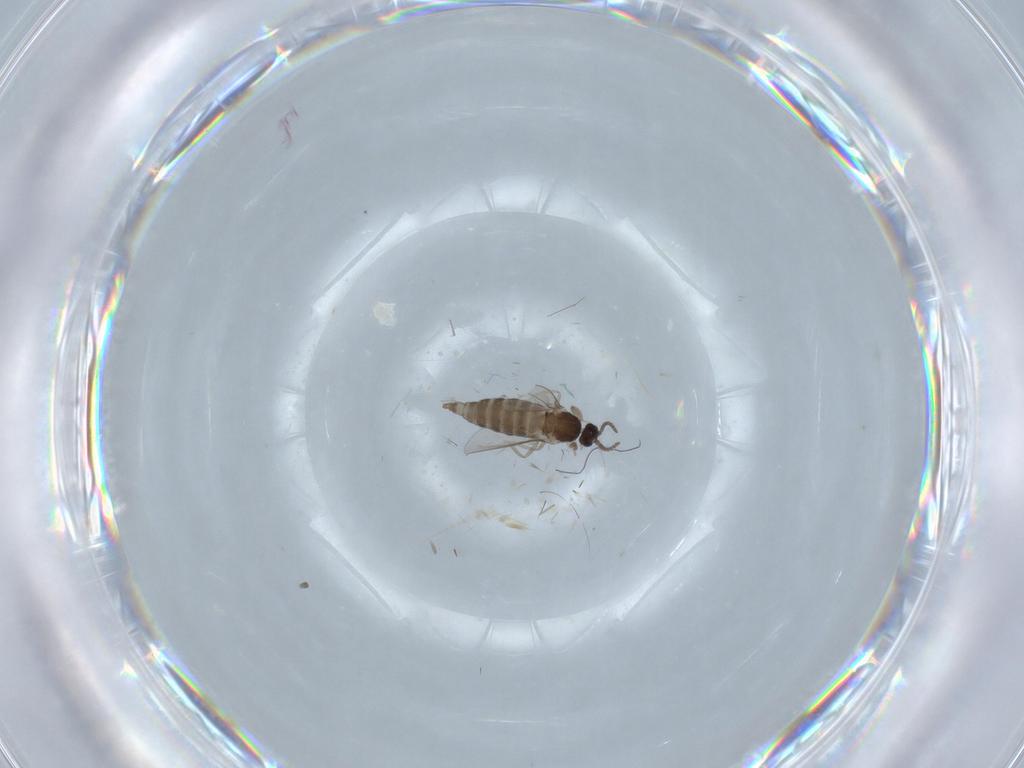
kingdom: Animalia
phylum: Arthropoda
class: Insecta
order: Diptera
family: Cecidomyiidae
